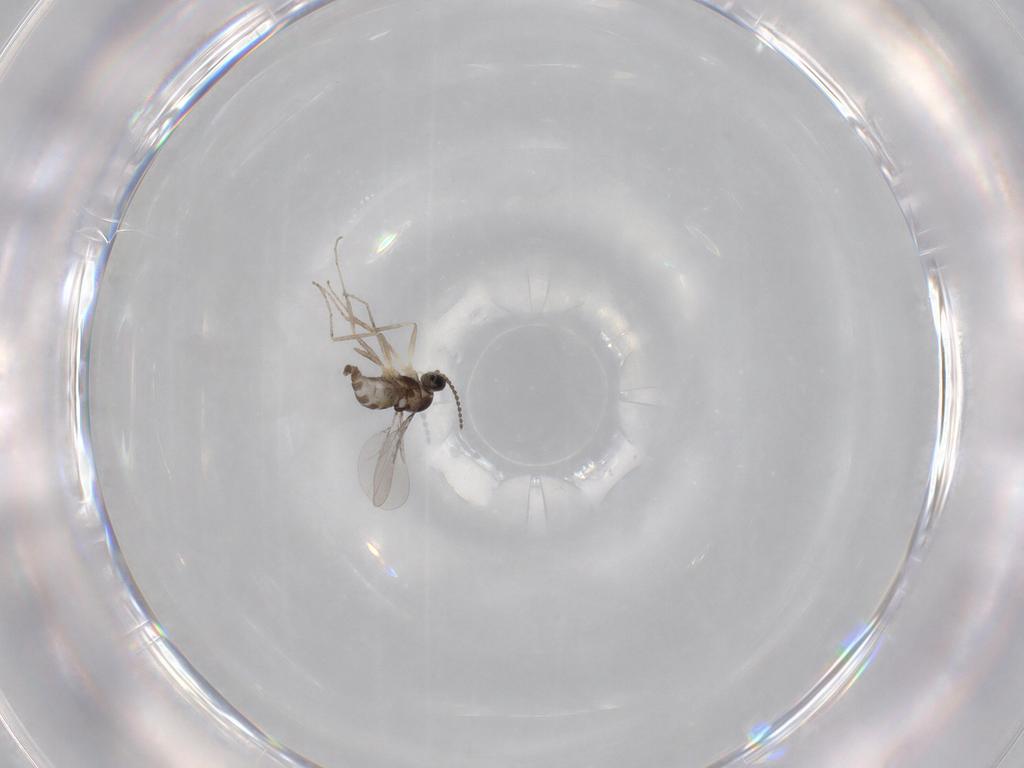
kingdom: Animalia
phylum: Arthropoda
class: Insecta
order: Diptera
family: Cecidomyiidae
